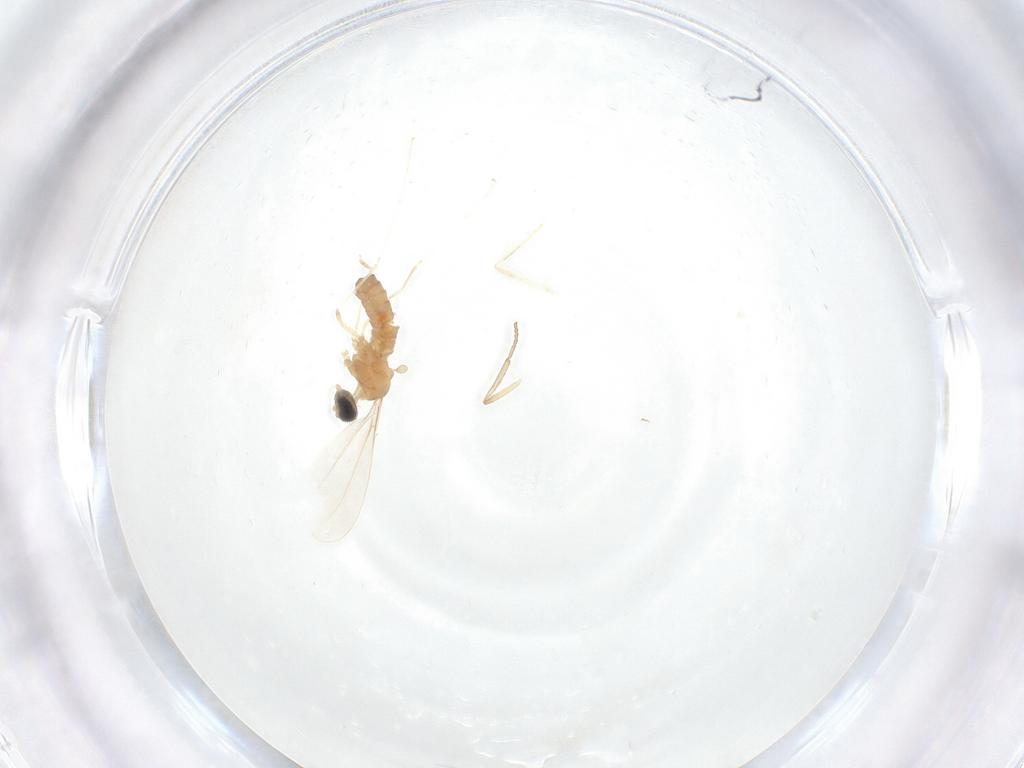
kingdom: Animalia
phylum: Arthropoda
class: Insecta
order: Diptera
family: Cecidomyiidae
